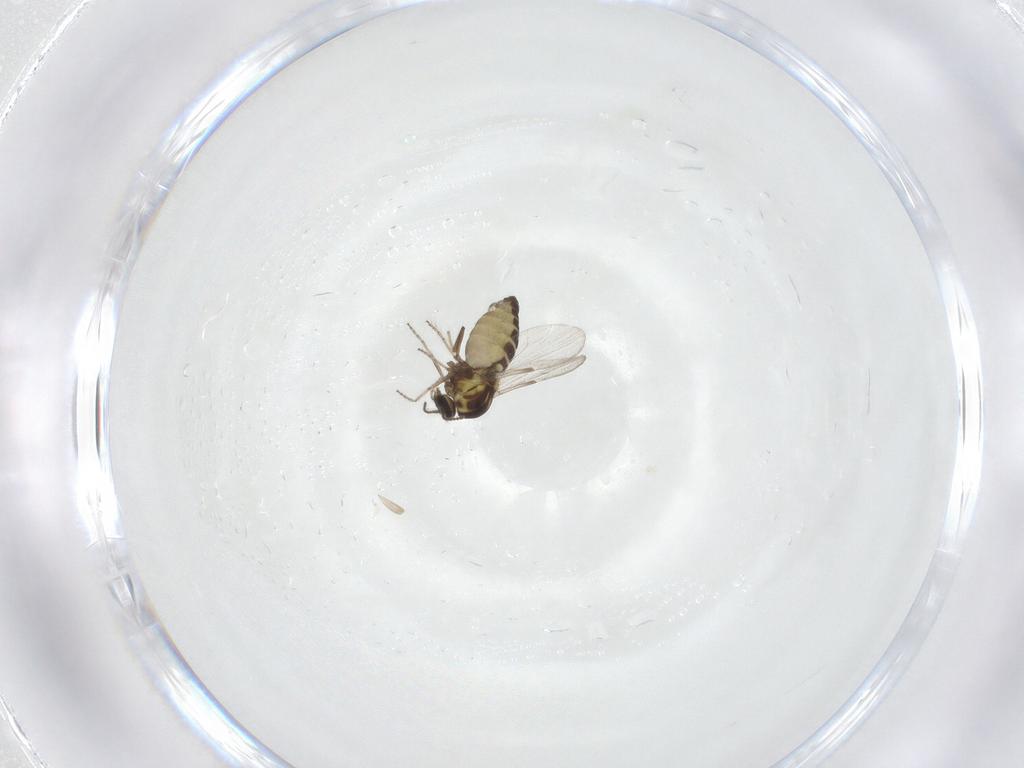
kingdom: Animalia
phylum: Arthropoda
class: Insecta
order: Diptera
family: Ceratopogonidae
